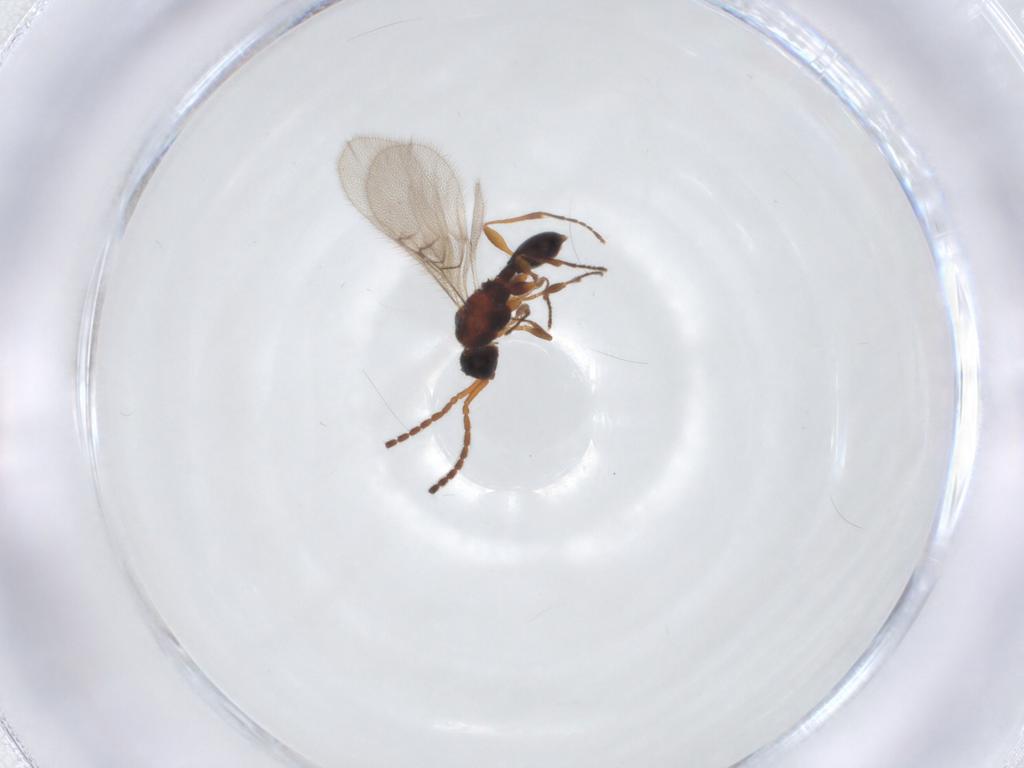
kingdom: Animalia
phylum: Arthropoda
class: Insecta
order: Hymenoptera
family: Diapriidae
